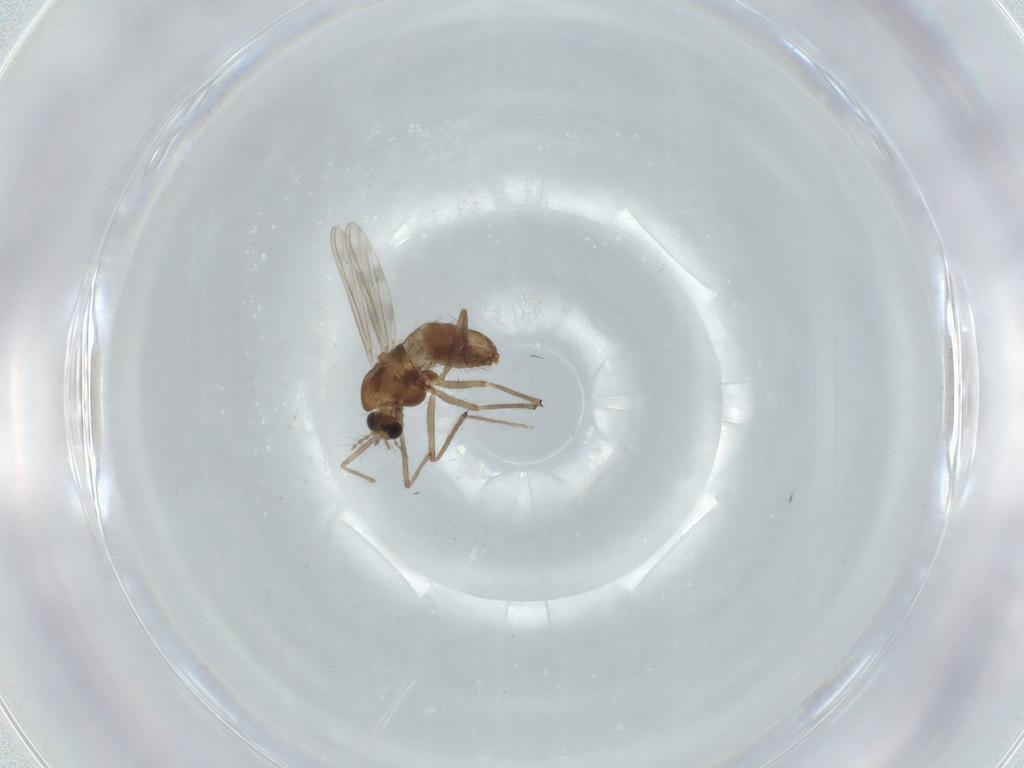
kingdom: Animalia
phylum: Arthropoda
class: Insecta
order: Diptera
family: Chironomidae
